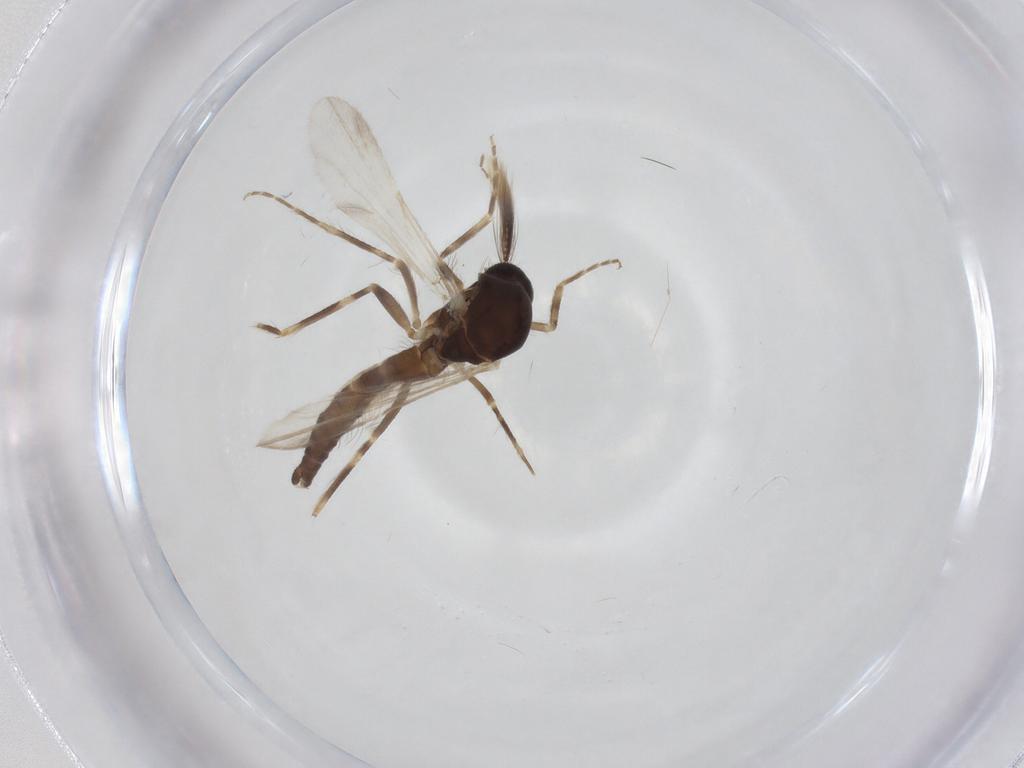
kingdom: Animalia
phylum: Arthropoda
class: Insecta
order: Diptera
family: Ceratopogonidae
